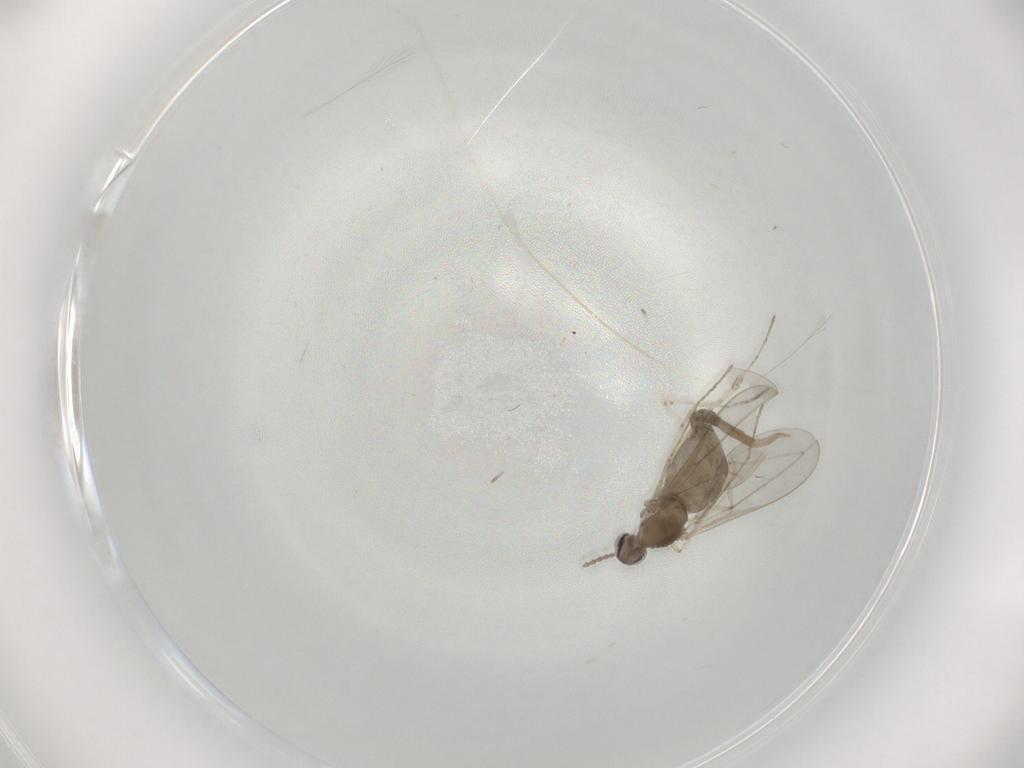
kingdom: Animalia
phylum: Arthropoda
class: Insecta
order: Diptera
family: Cecidomyiidae
